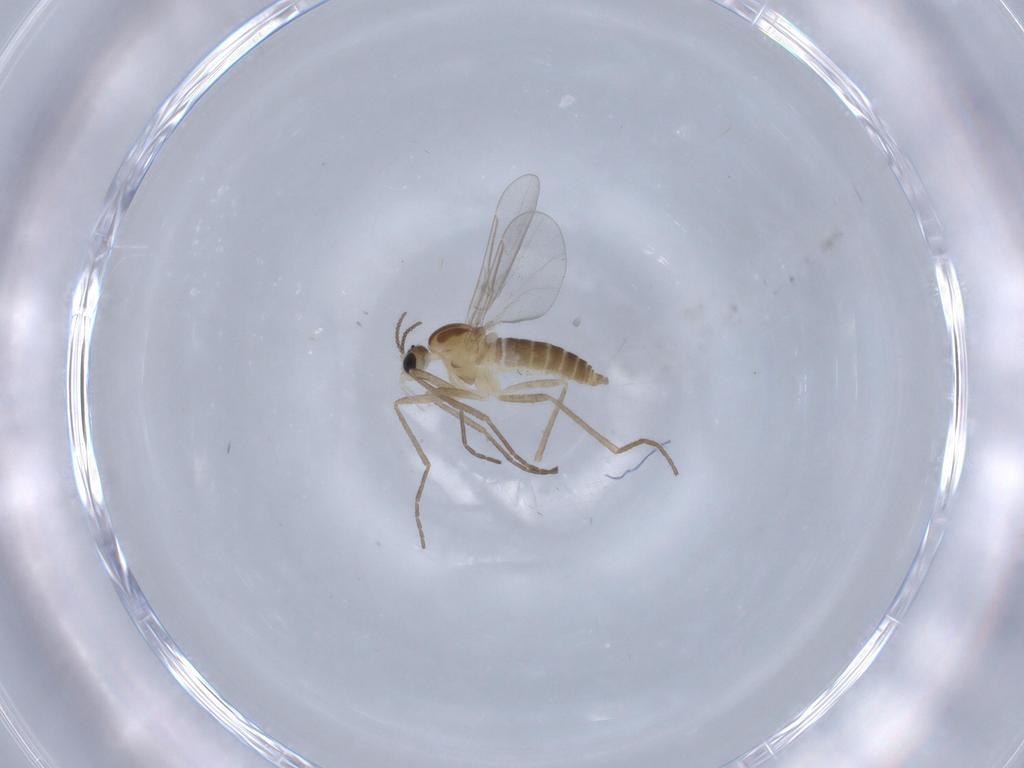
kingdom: Animalia
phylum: Arthropoda
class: Insecta
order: Diptera
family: Cecidomyiidae
